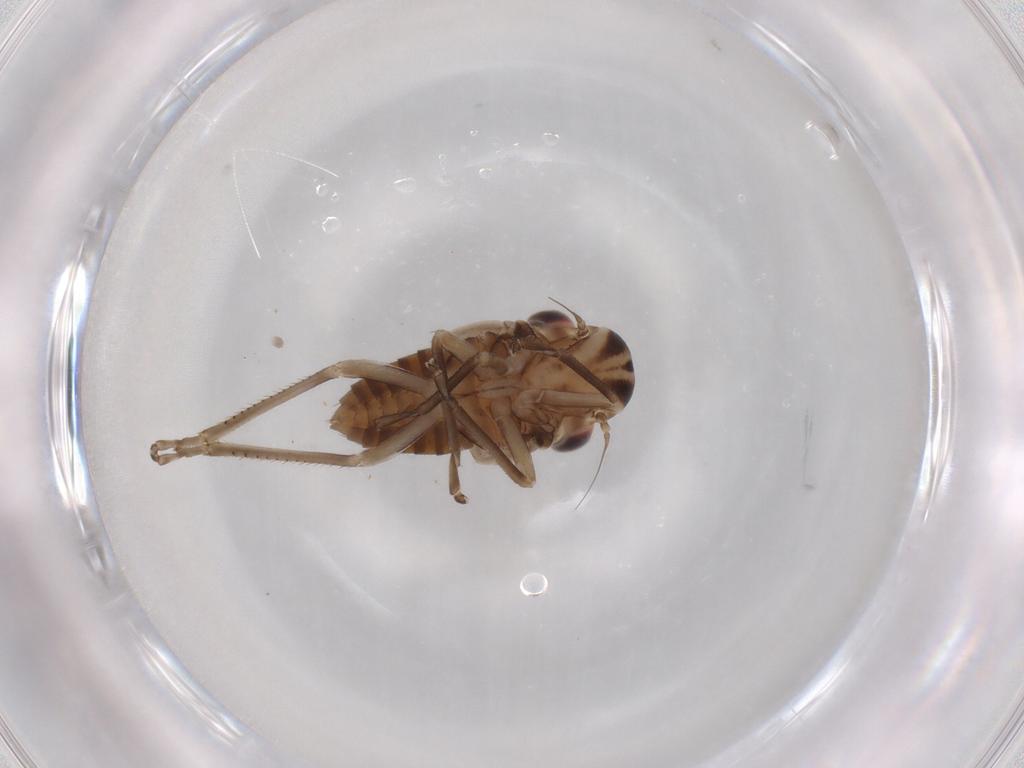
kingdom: Animalia
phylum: Arthropoda
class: Insecta
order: Hemiptera
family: Cicadellidae
